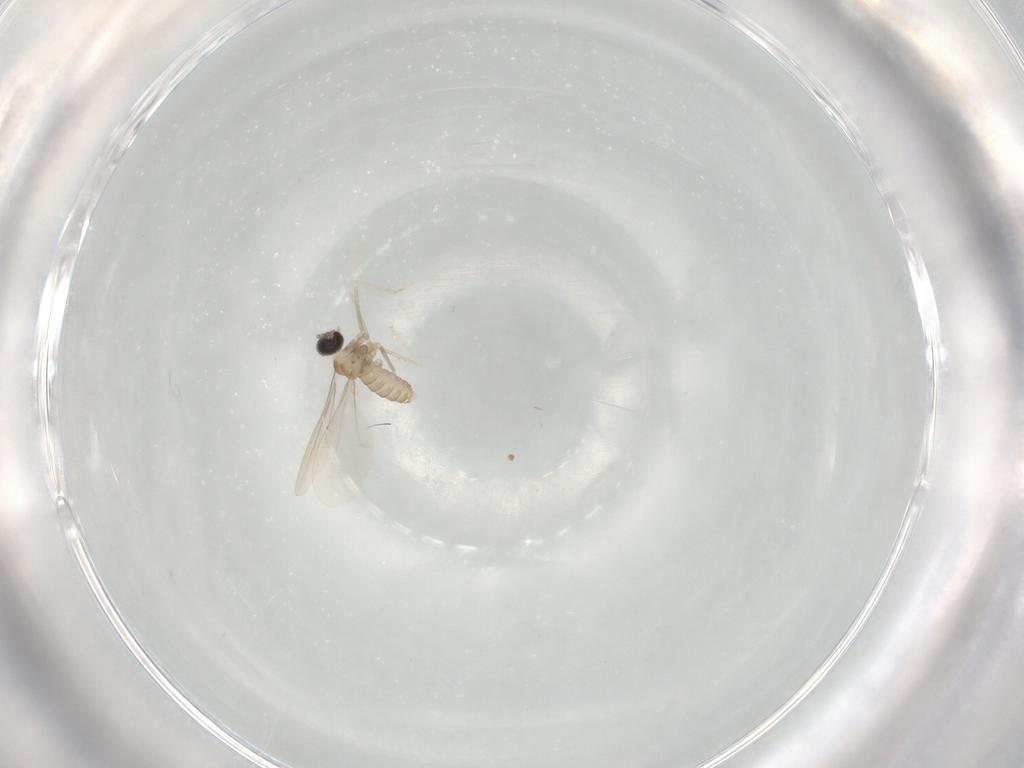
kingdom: Animalia
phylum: Arthropoda
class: Insecta
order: Diptera
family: Cecidomyiidae
